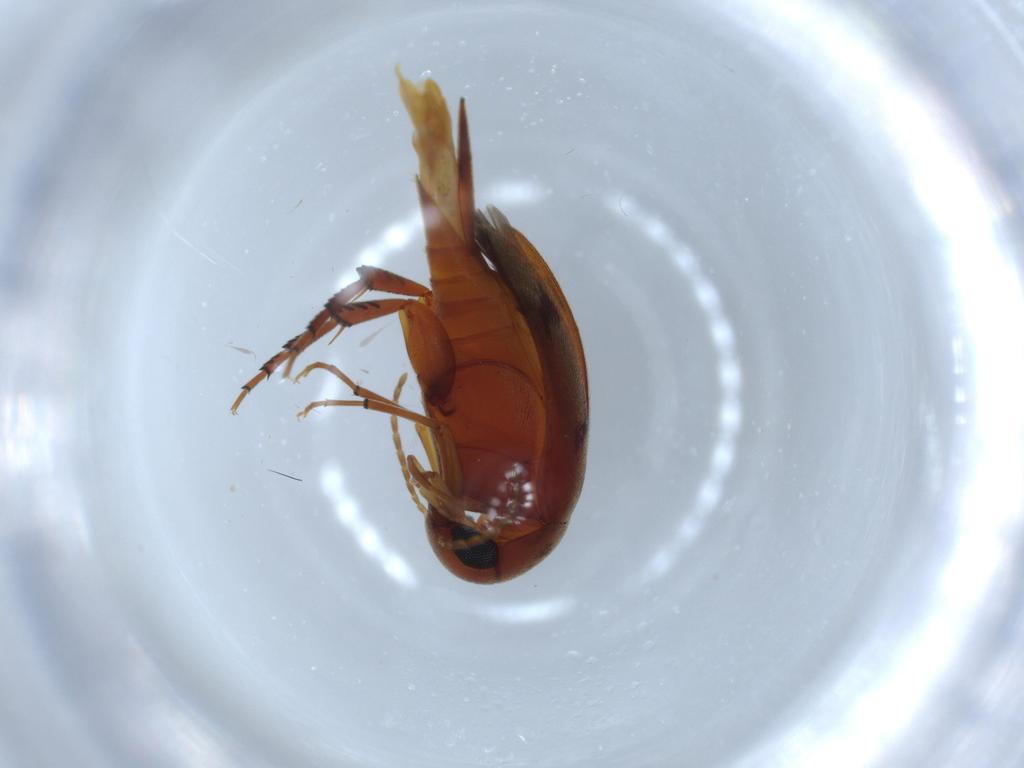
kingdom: Animalia
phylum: Arthropoda
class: Insecta
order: Coleoptera
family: Mordellidae
